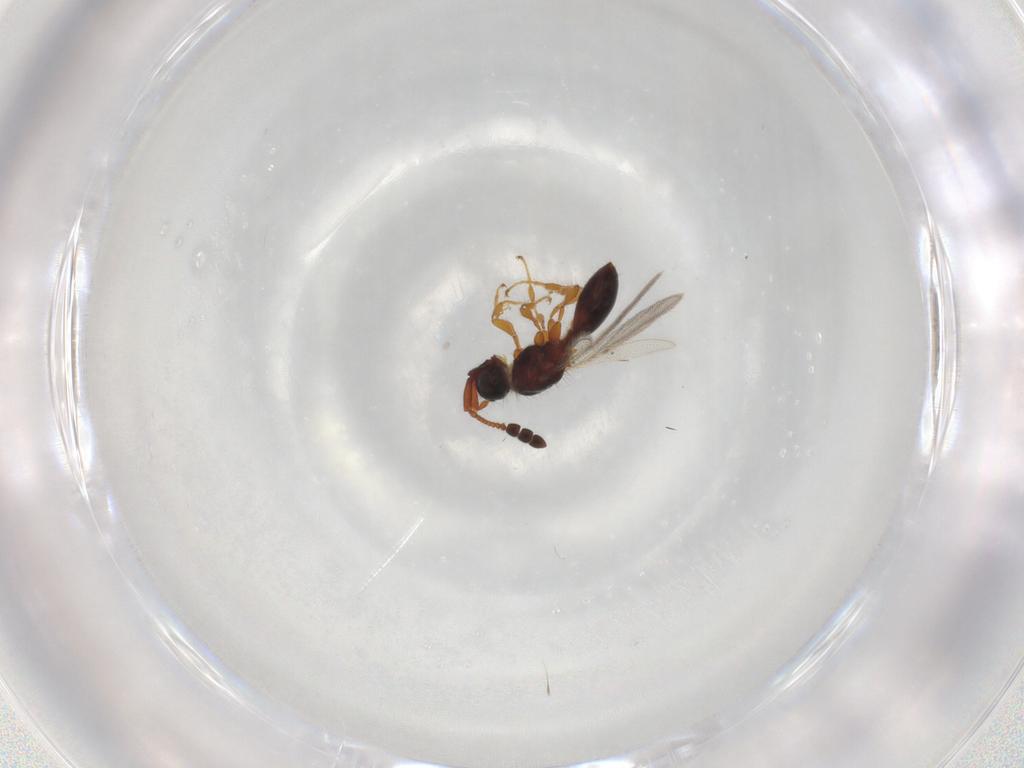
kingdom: Animalia
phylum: Arthropoda
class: Insecta
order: Hymenoptera
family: Diapriidae
